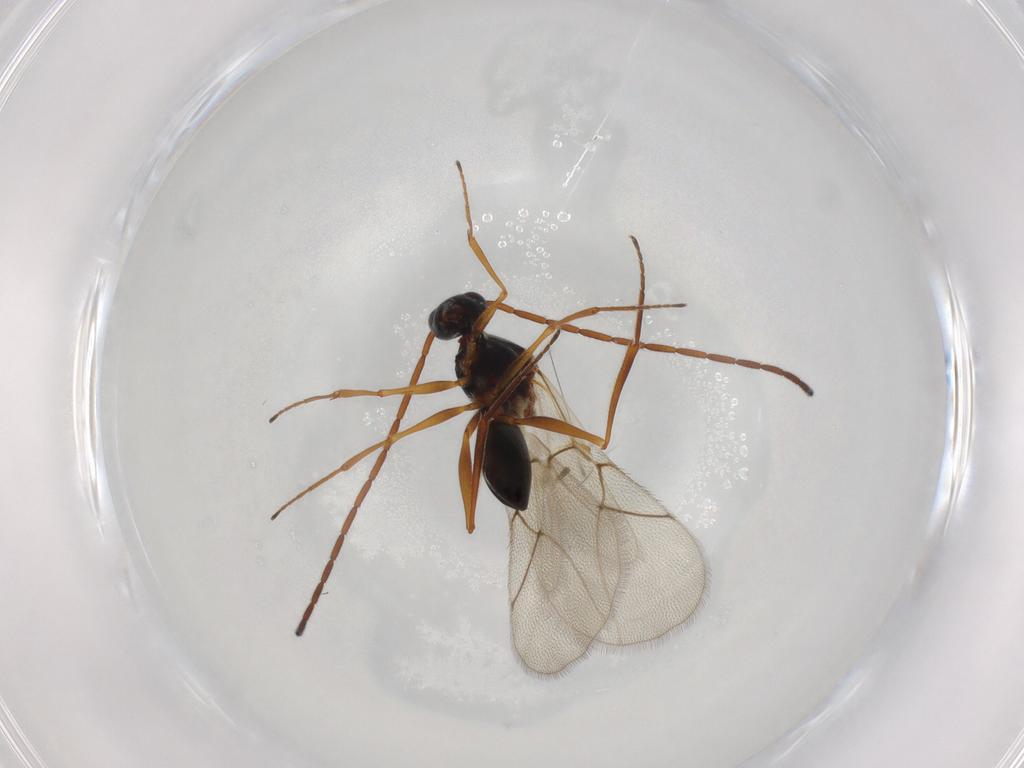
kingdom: Animalia
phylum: Arthropoda
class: Insecta
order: Hymenoptera
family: Figitidae
